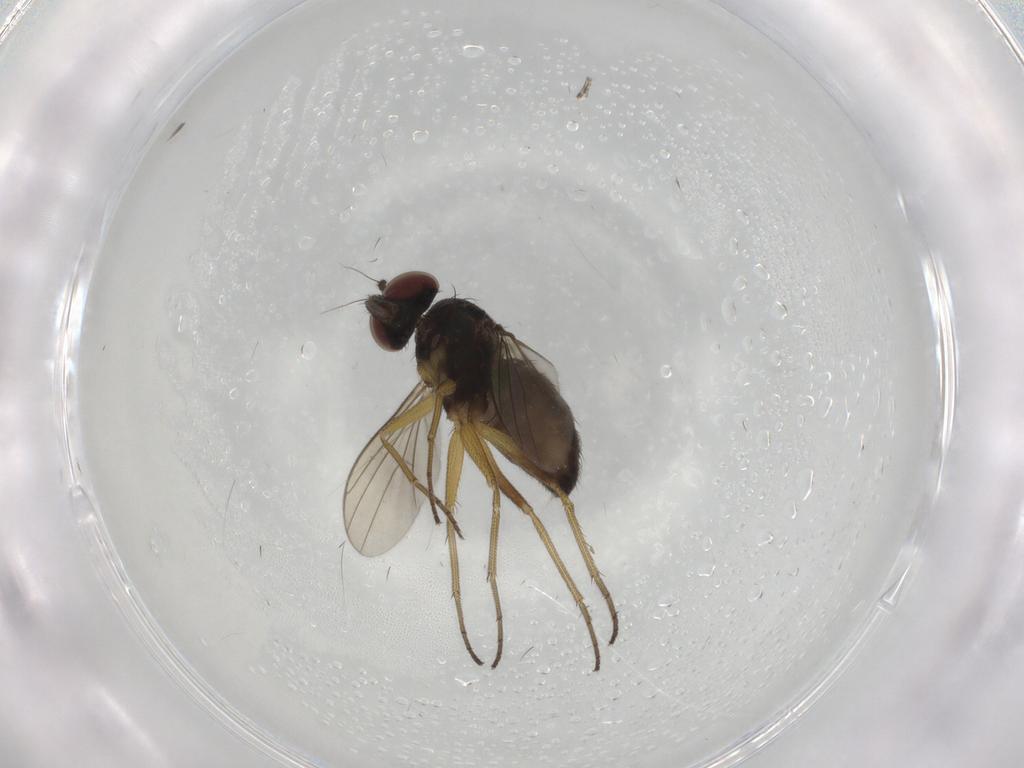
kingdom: Animalia
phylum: Arthropoda
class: Insecta
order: Diptera
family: Dolichopodidae
